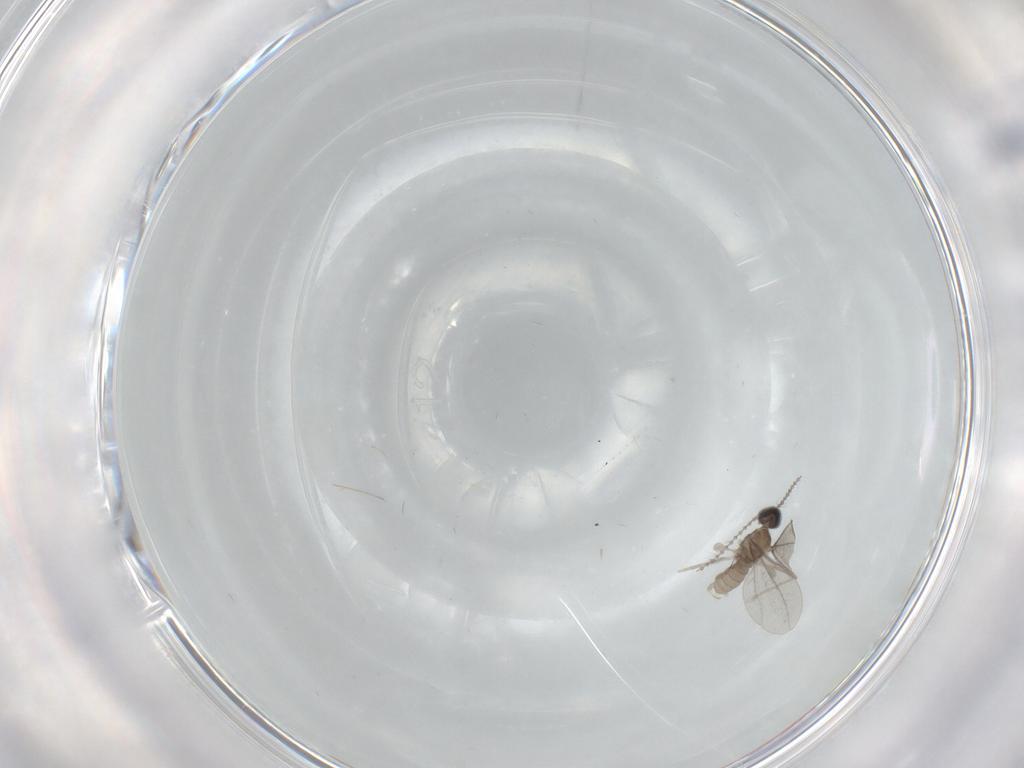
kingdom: Animalia
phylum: Arthropoda
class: Insecta
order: Diptera
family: Cecidomyiidae
